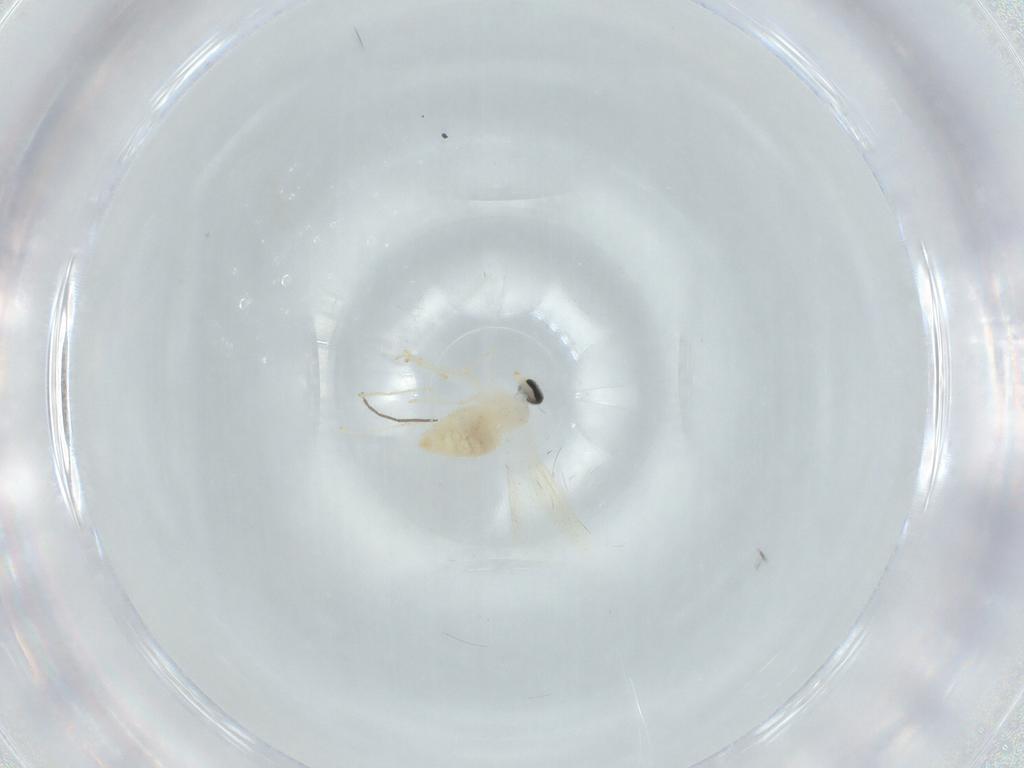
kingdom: Animalia
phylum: Arthropoda
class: Insecta
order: Diptera
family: Cecidomyiidae
